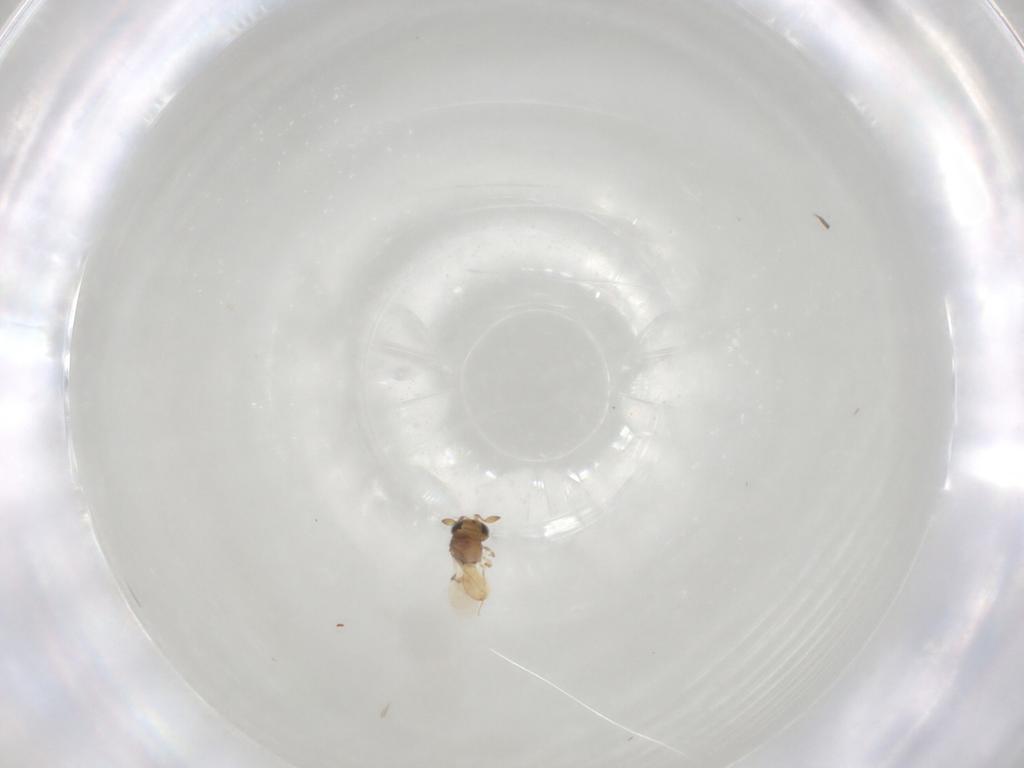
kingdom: Animalia
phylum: Arthropoda
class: Insecta
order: Hymenoptera
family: Scelionidae
